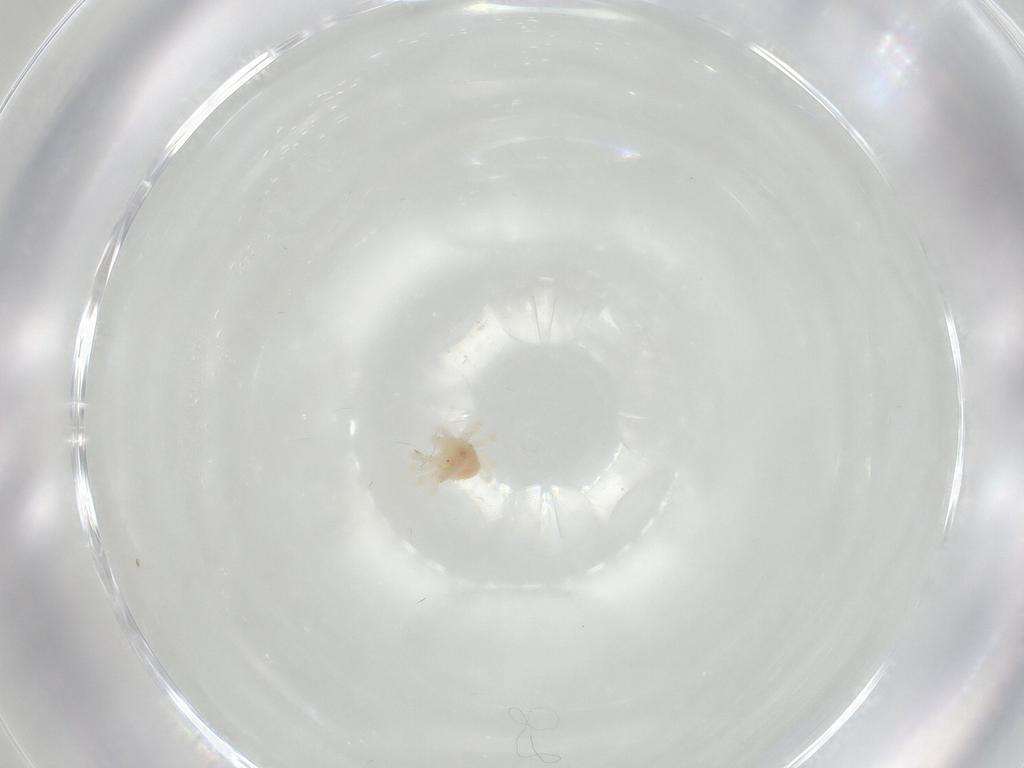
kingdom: Animalia
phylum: Arthropoda
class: Arachnida
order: Trombidiformes
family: Anystidae
